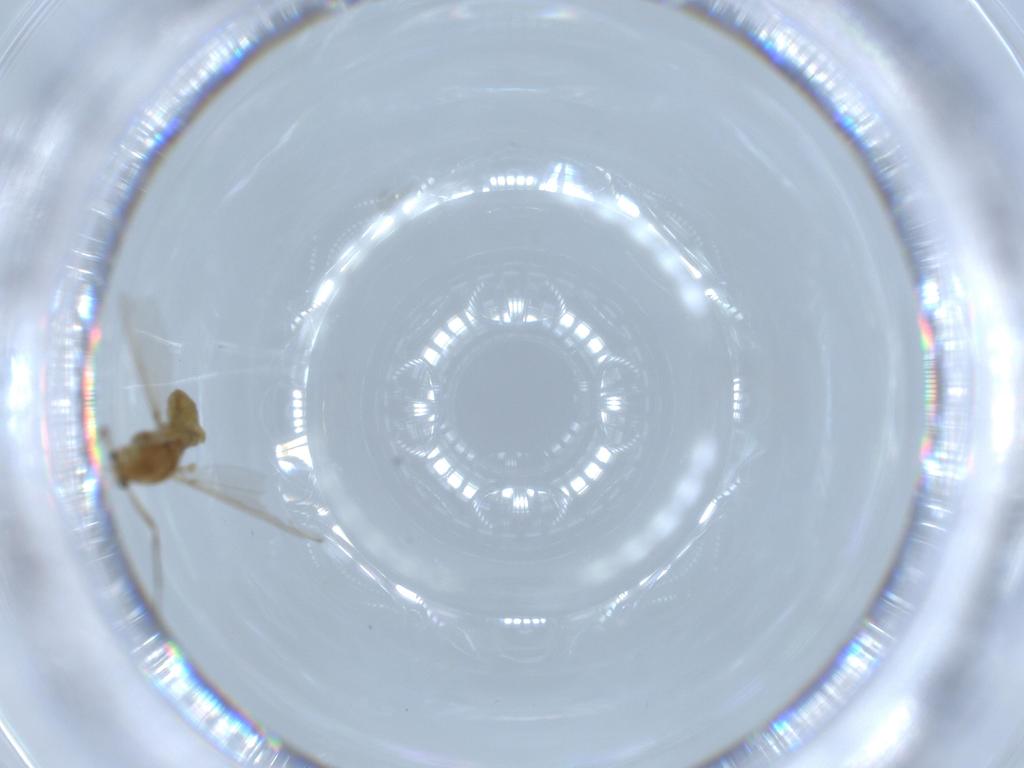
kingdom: Animalia
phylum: Arthropoda
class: Insecta
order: Diptera
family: Chironomidae
